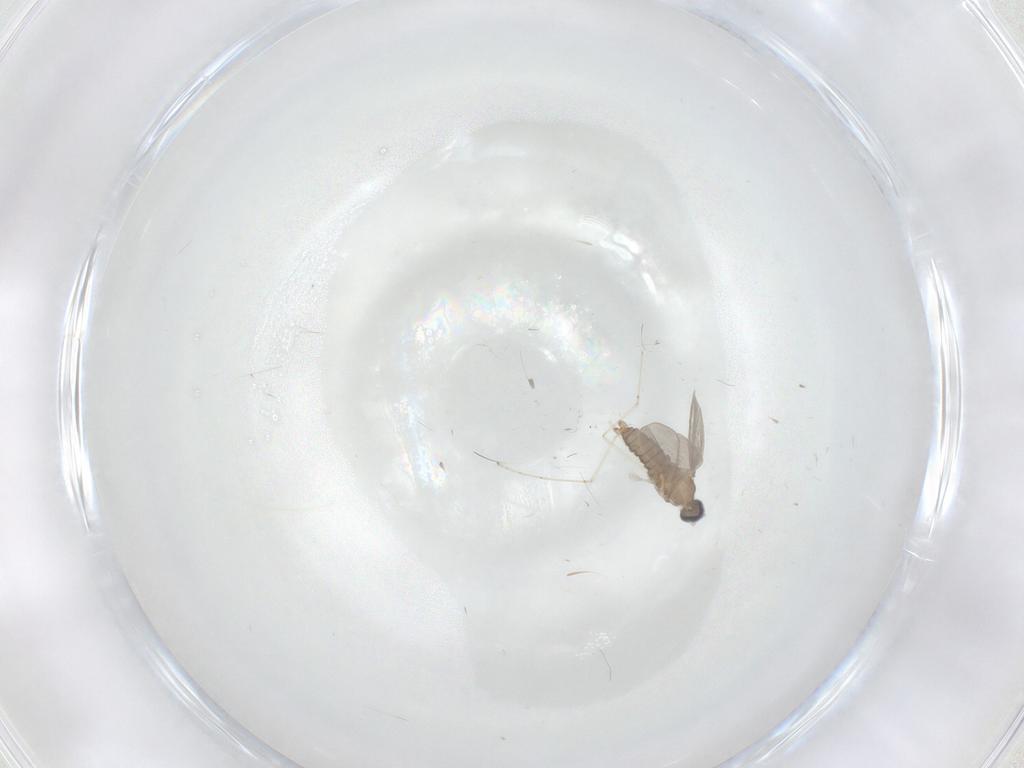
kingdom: Animalia
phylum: Arthropoda
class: Insecta
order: Diptera
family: Cecidomyiidae
